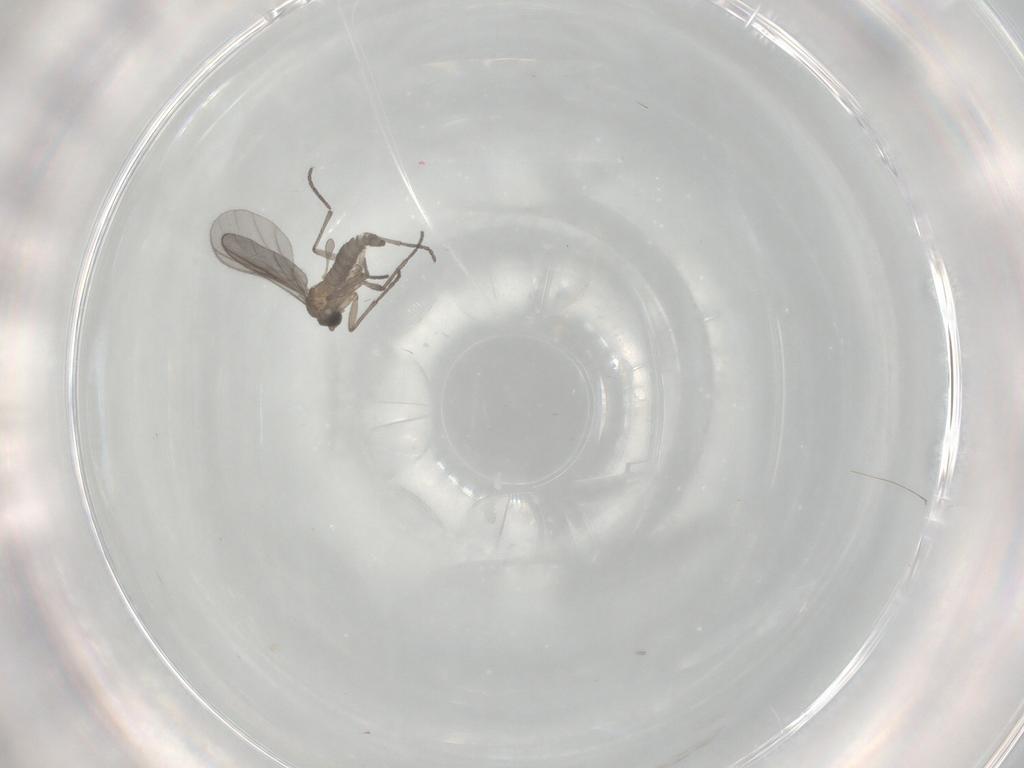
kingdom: Animalia
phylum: Arthropoda
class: Insecta
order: Diptera
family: Sciaridae
